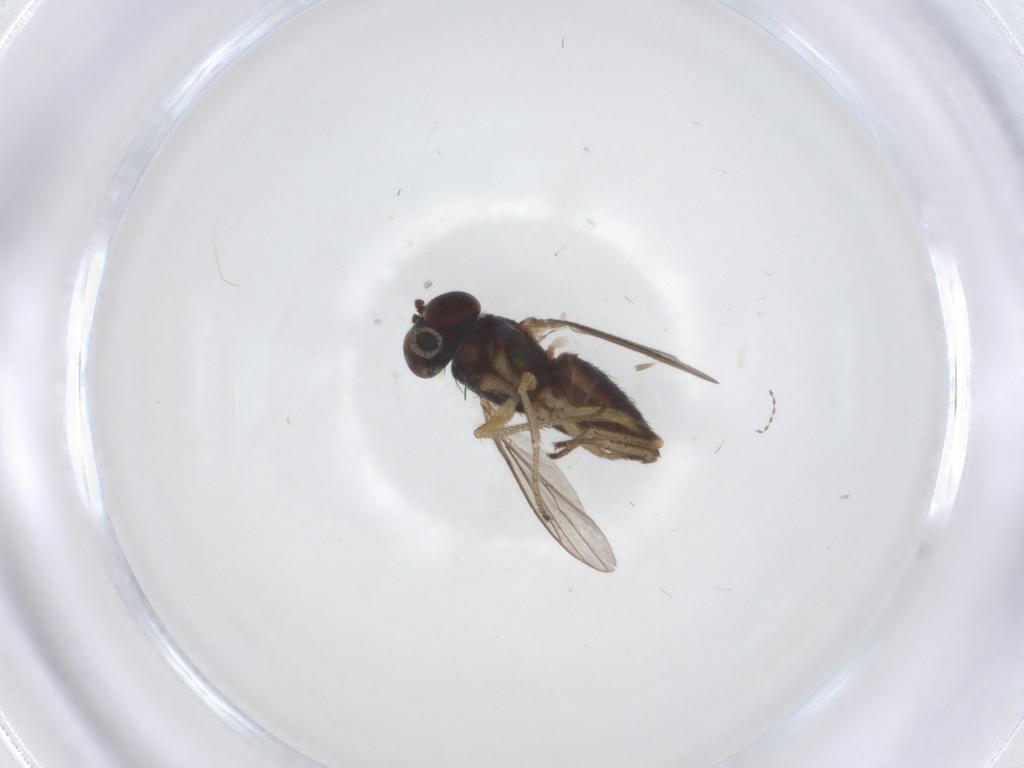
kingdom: Animalia
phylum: Arthropoda
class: Insecta
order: Diptera
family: Dolichopodidae
